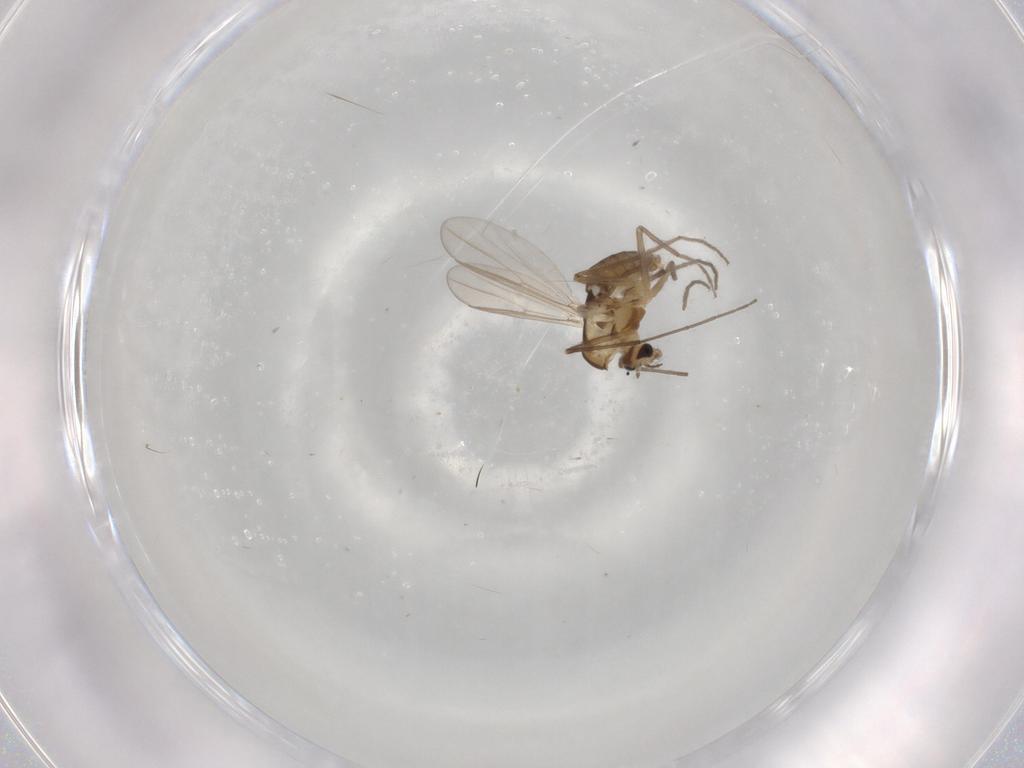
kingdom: Animalia
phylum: Arthropoda
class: Insecta
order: Diptera
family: Chironomidae
